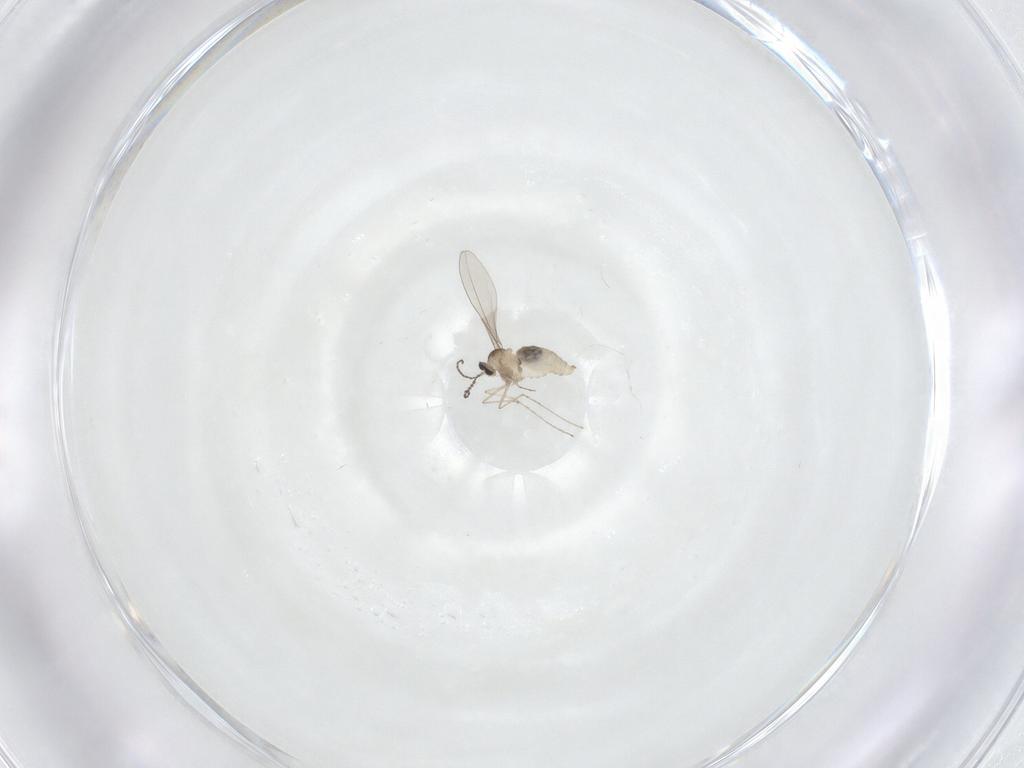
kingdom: Animalia
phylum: Arthropoda
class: Insecta
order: Diptera
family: Cecidomyiidae
